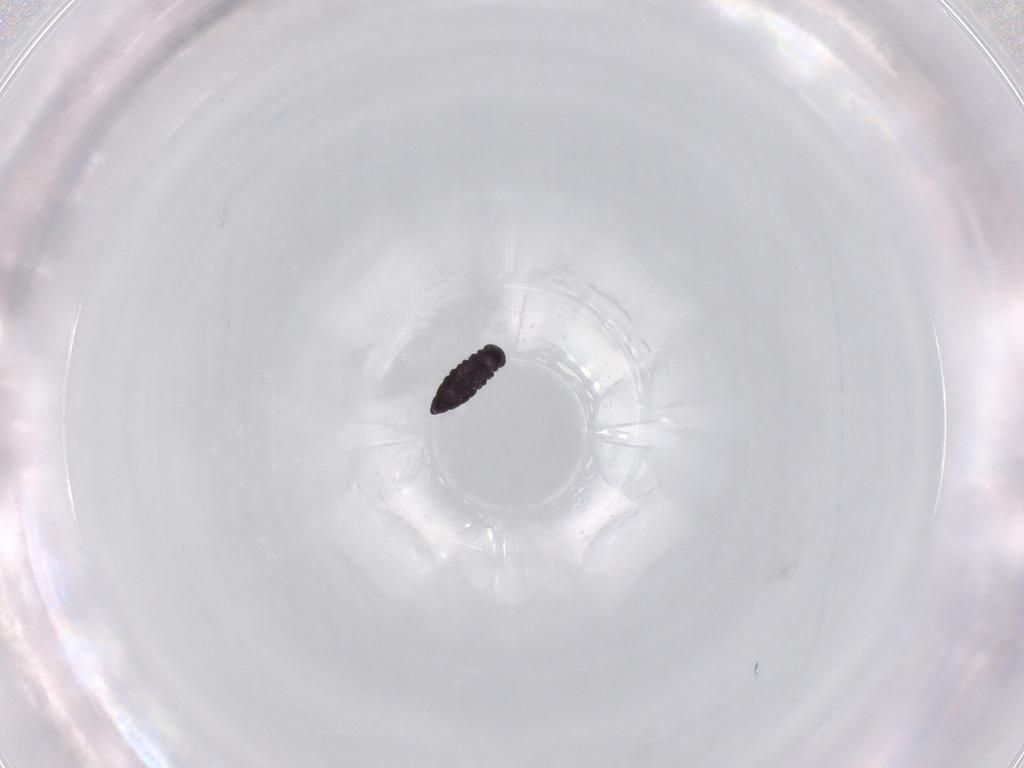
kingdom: Animalia
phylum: Arthropoda
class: Collembola
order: Poduromorpha
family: Hypogastruridae
